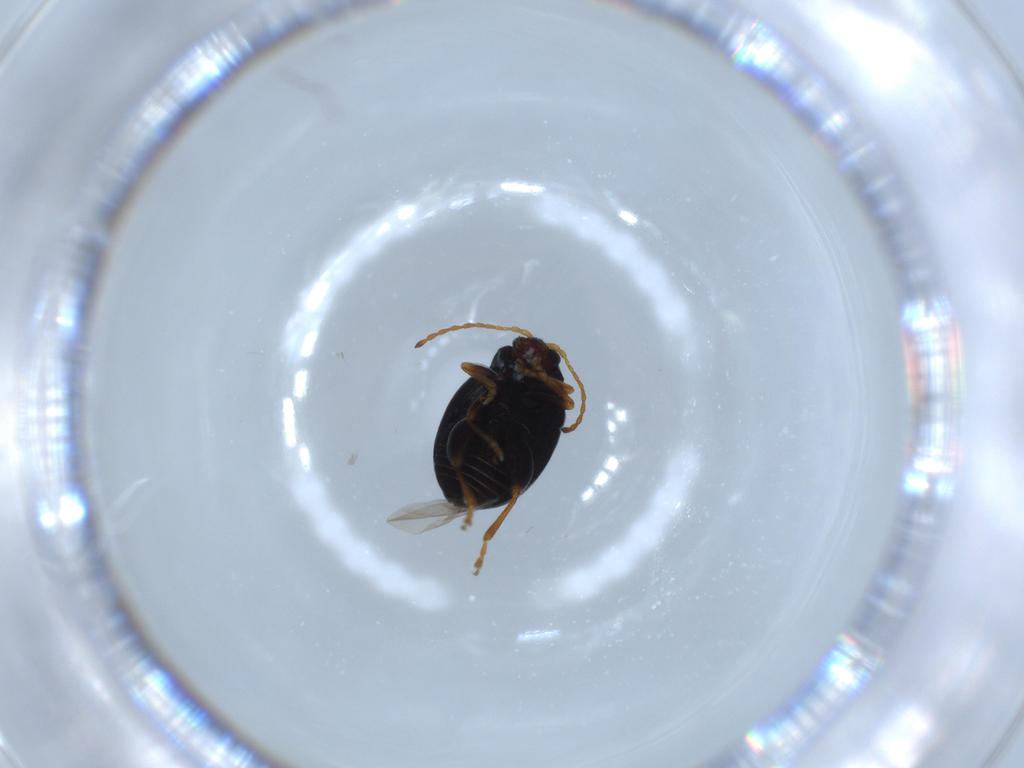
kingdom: Animalia
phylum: Arthropoda
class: Insecta
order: Coleoptera
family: Chrysomelidae
